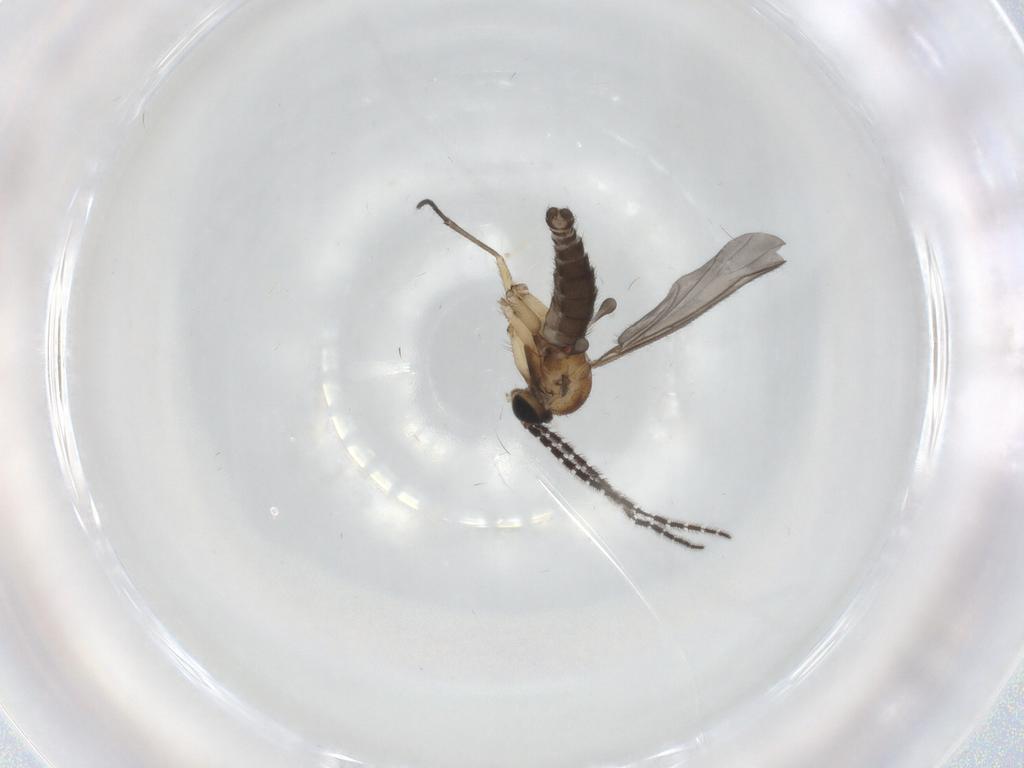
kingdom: Animalia
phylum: Arthropoda
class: Insecta
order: Diptera
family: Sciaridae
